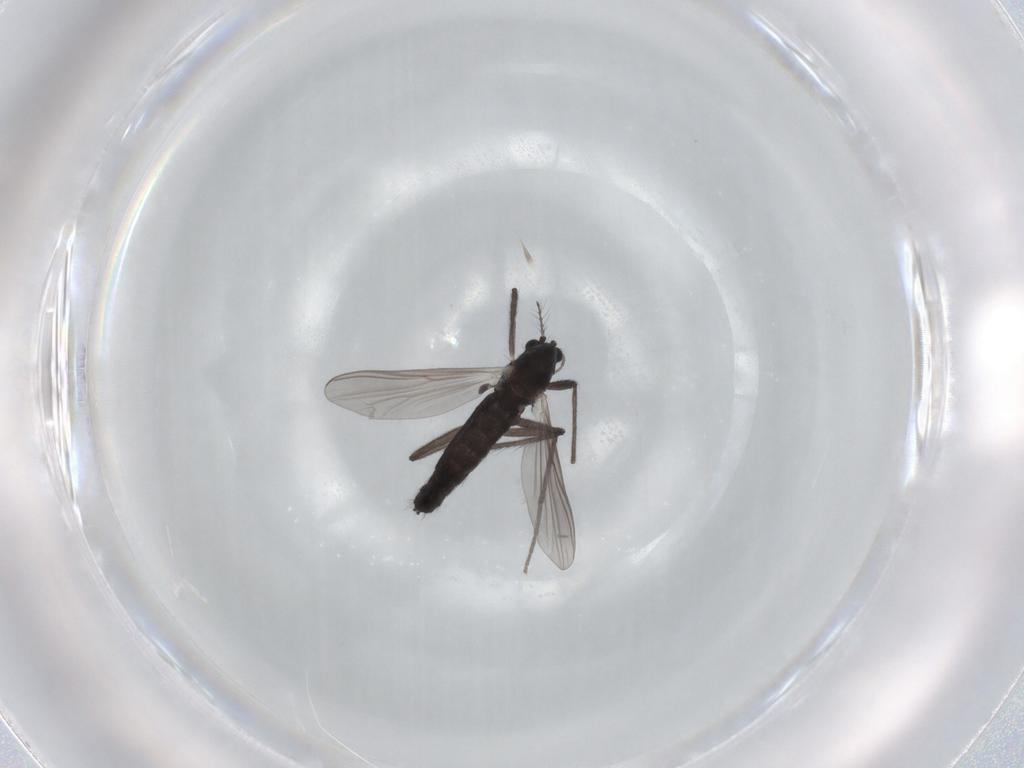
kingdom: Animalia
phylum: Arthropoda
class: Insecta
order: Diptera
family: Chironomidae
